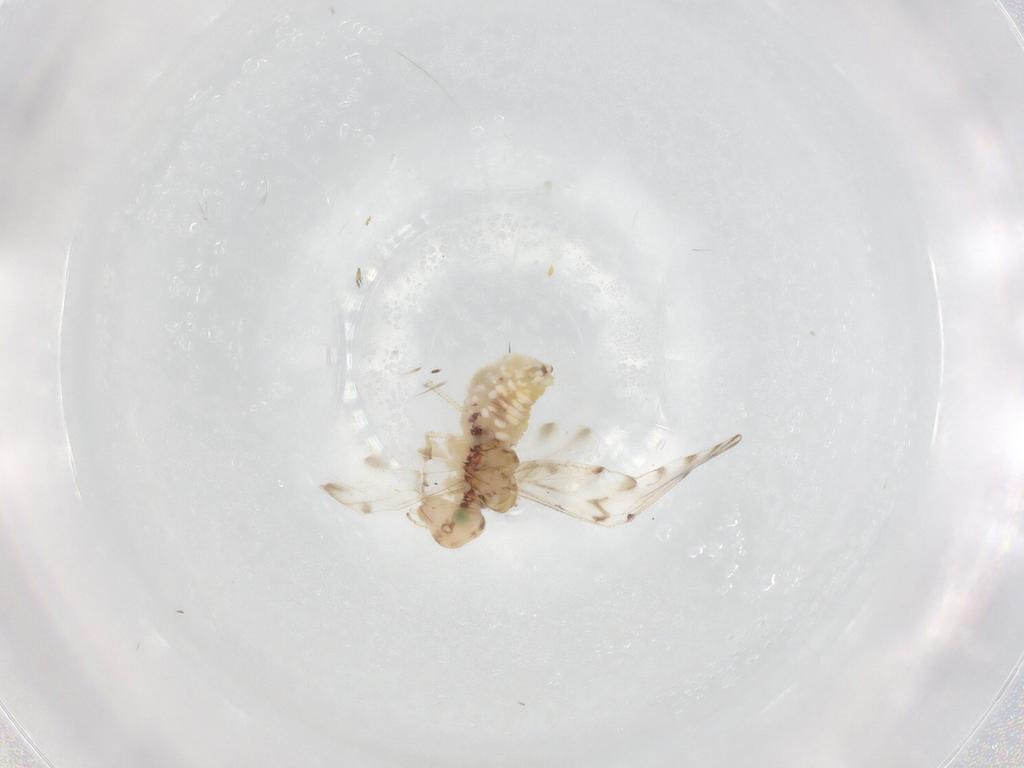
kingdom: Animalia
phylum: Arthropoda
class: Insecta
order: Psocodea
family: Ectopsocidae
